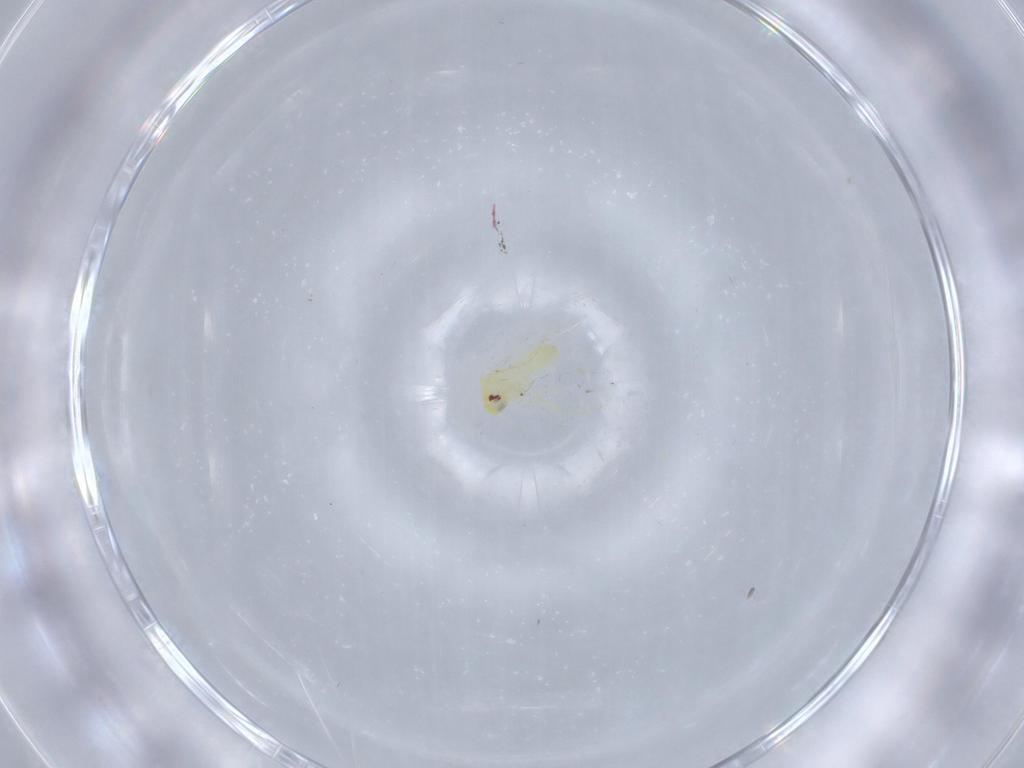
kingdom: Animalia
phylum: Arthropoda
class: Insecta
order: Hemiptera
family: Aleyrodidae
